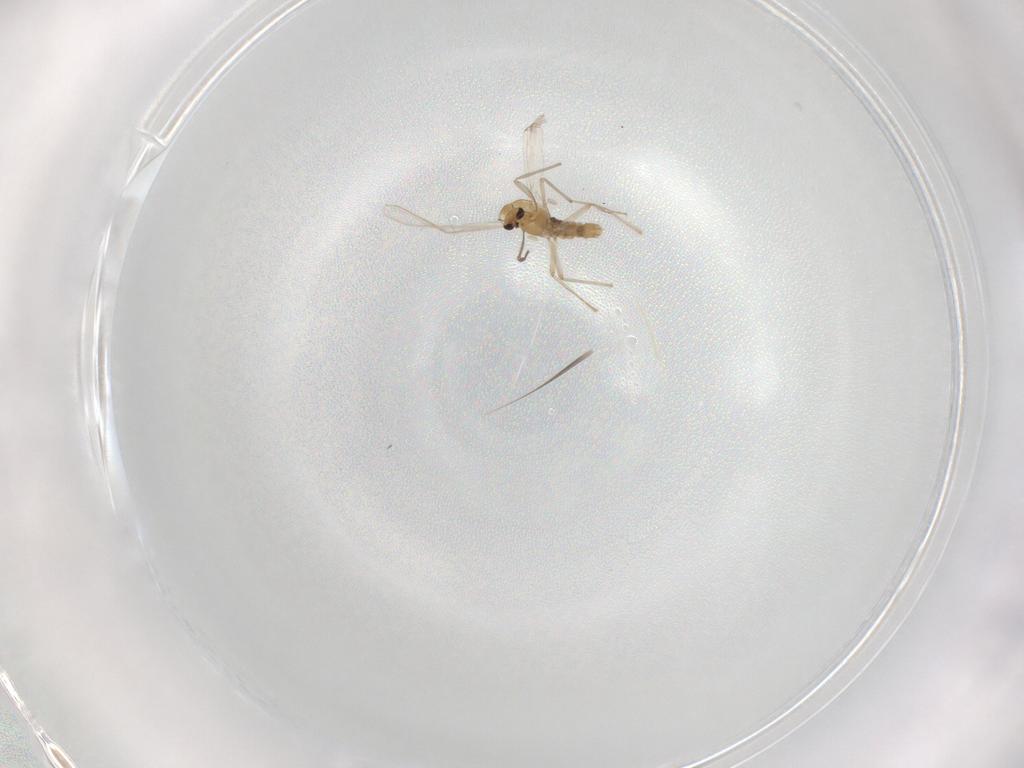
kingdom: Animalia
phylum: Arthropoda
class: Insecta
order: Diptera
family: Chironomidae
